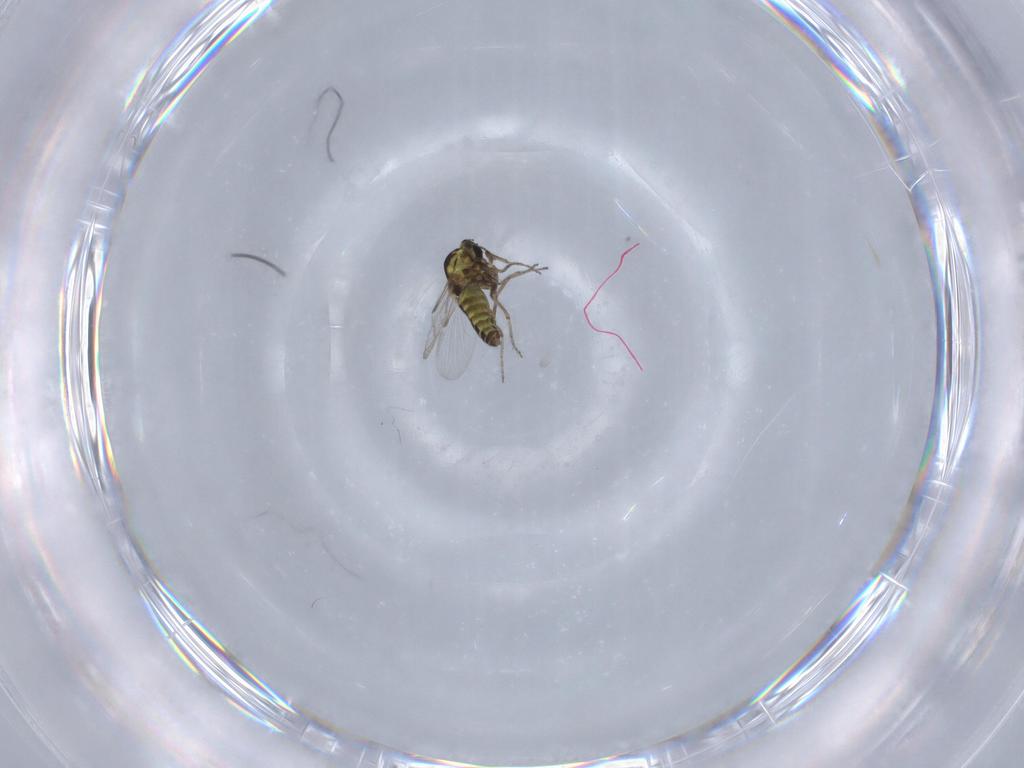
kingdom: Animalia
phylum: Arthropoda
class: Insecta
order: Diptera
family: Ceratopogonidae
